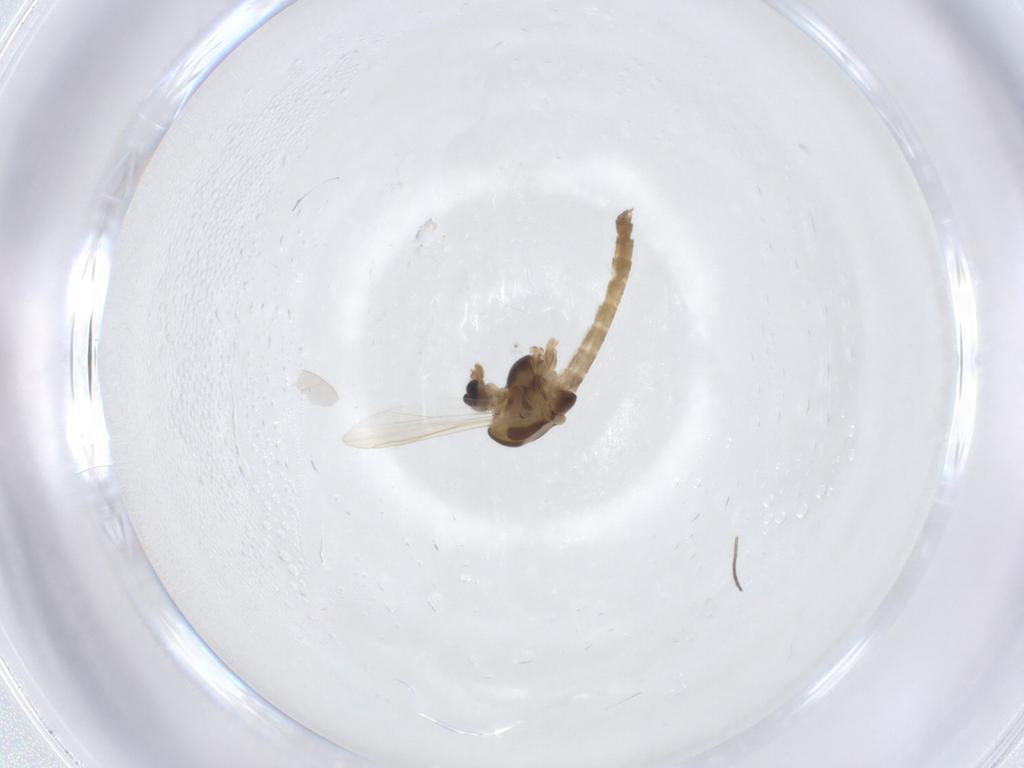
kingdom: Animalia
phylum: Arthropoda
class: Insecta
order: Diptera
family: Chironomidae
